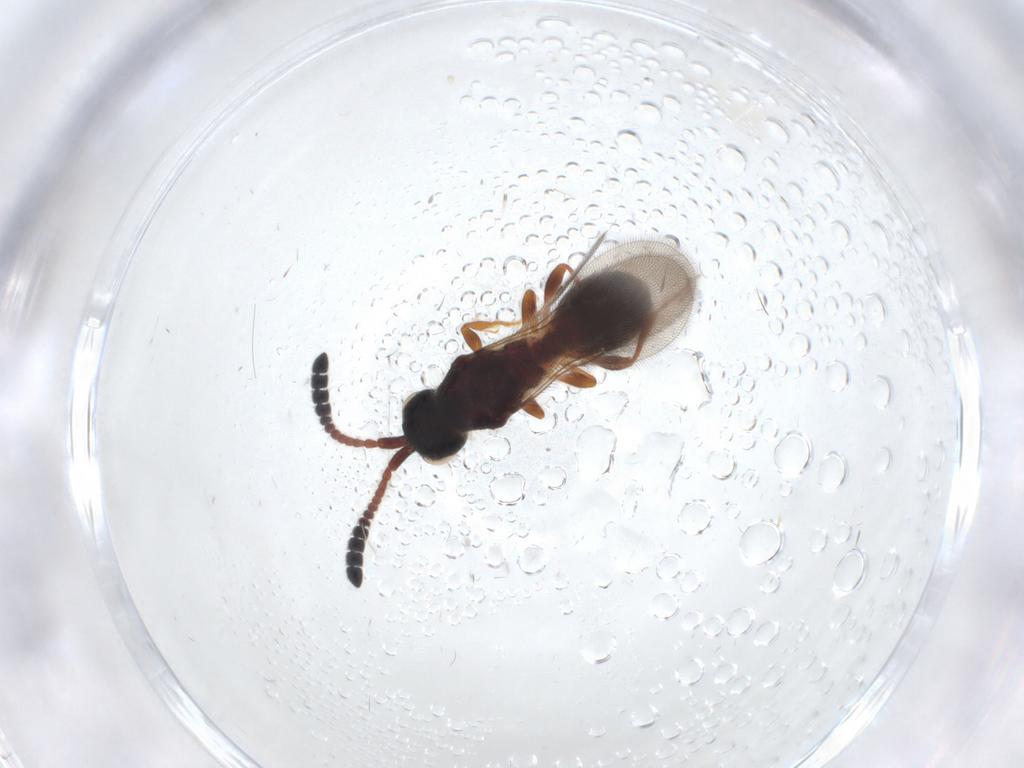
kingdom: Animalia
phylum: Arthropoda
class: Insecta
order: Hymenoptera
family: Diapriidae
